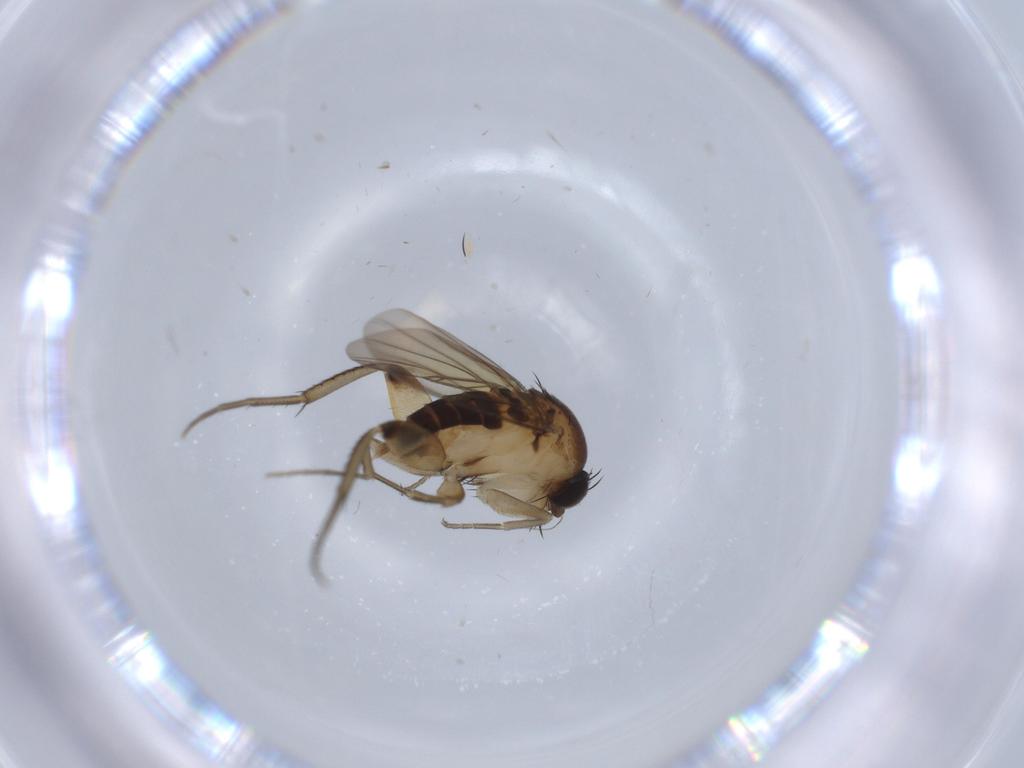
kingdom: Animalia
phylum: Arthropoda
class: Insecta
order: Diptera
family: Phoridae
